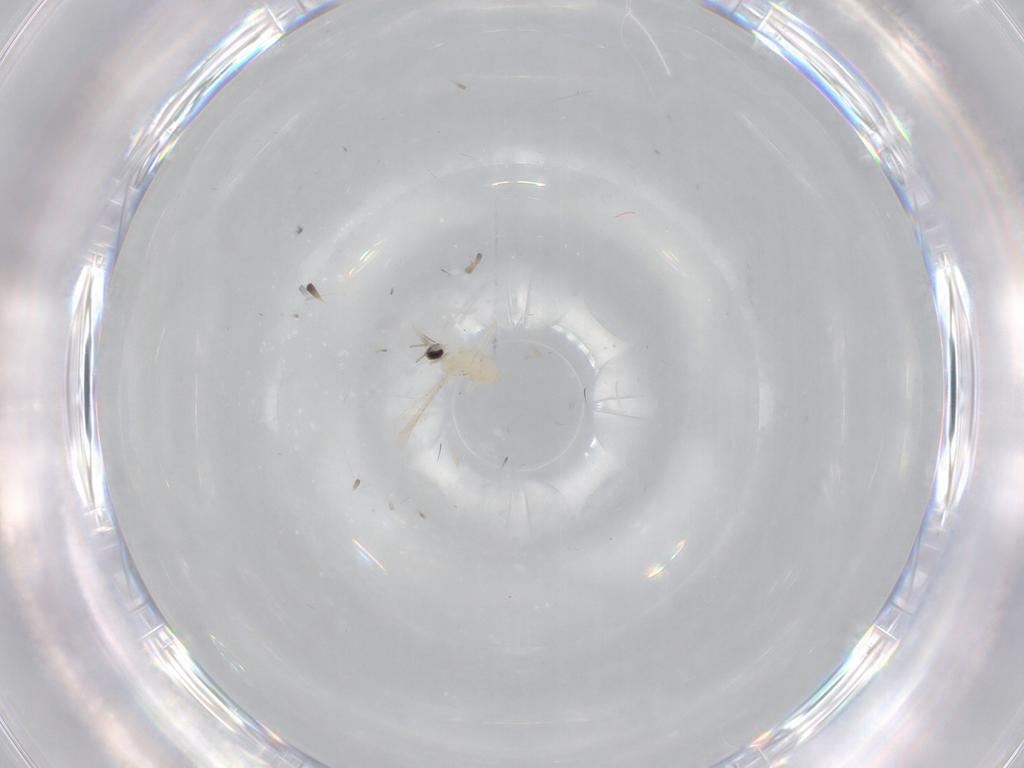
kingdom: Animalia
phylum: Arthropoda
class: Insecta
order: Diptera
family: Cecidomyiidae
